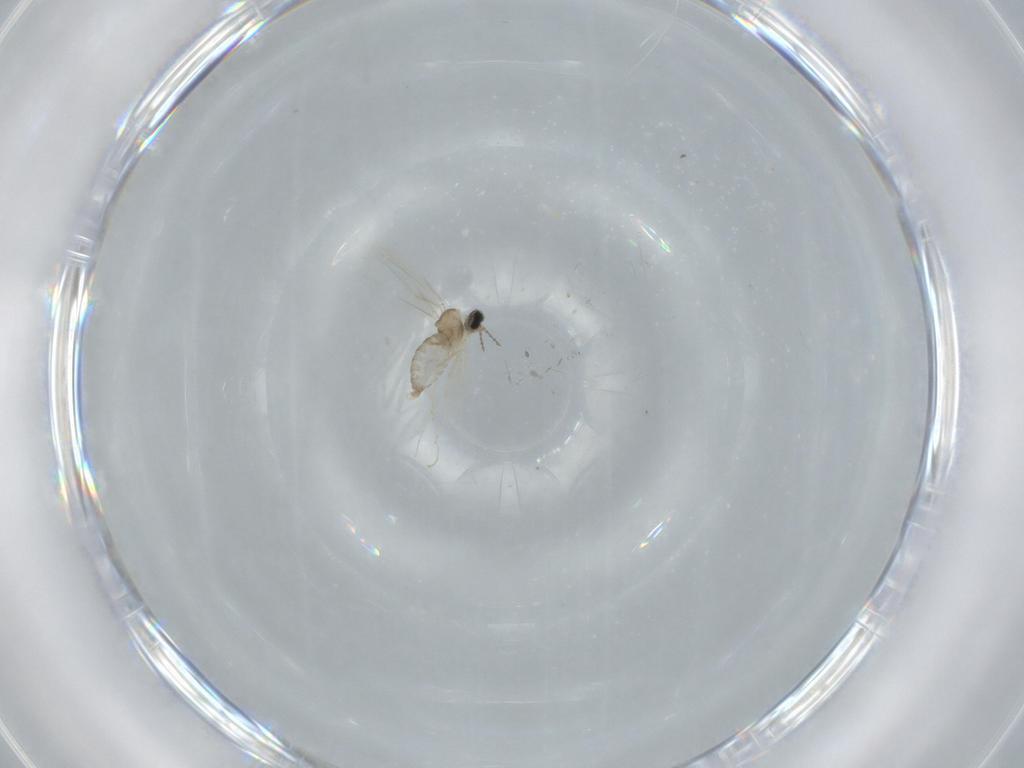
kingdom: Animalia
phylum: Arthropoda
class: Insecta
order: Diptera
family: Cecidomyiidae
